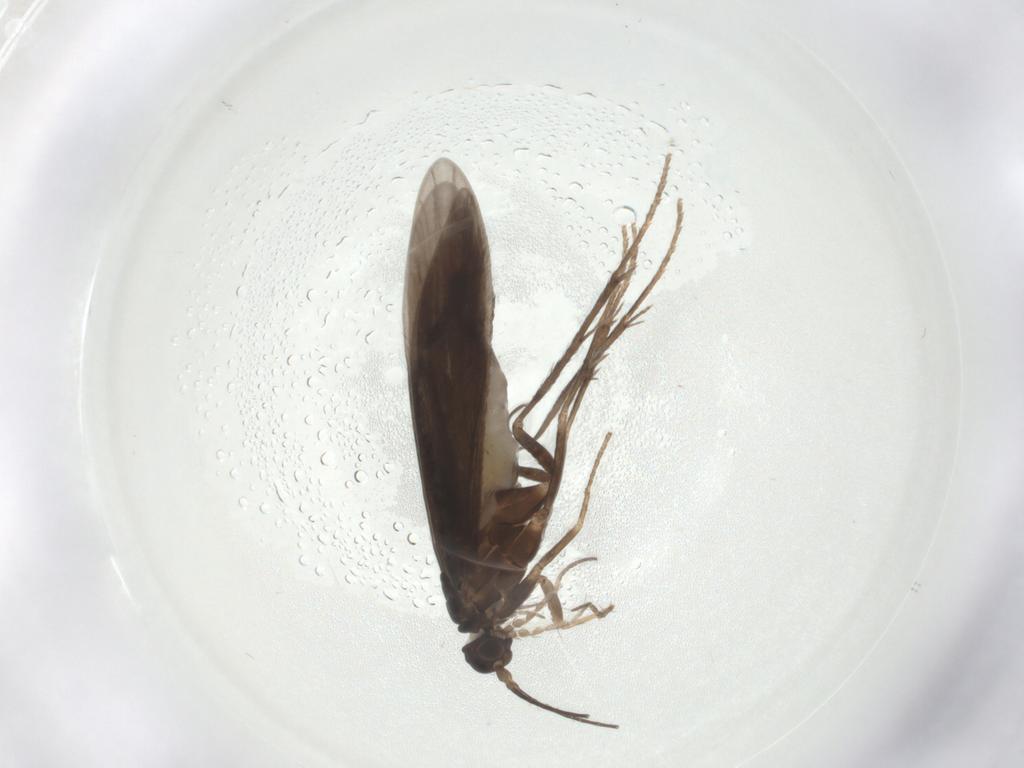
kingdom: Animalia
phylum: Arthropoda
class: Insecta
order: Trichoptera
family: Xiphocentronidae
